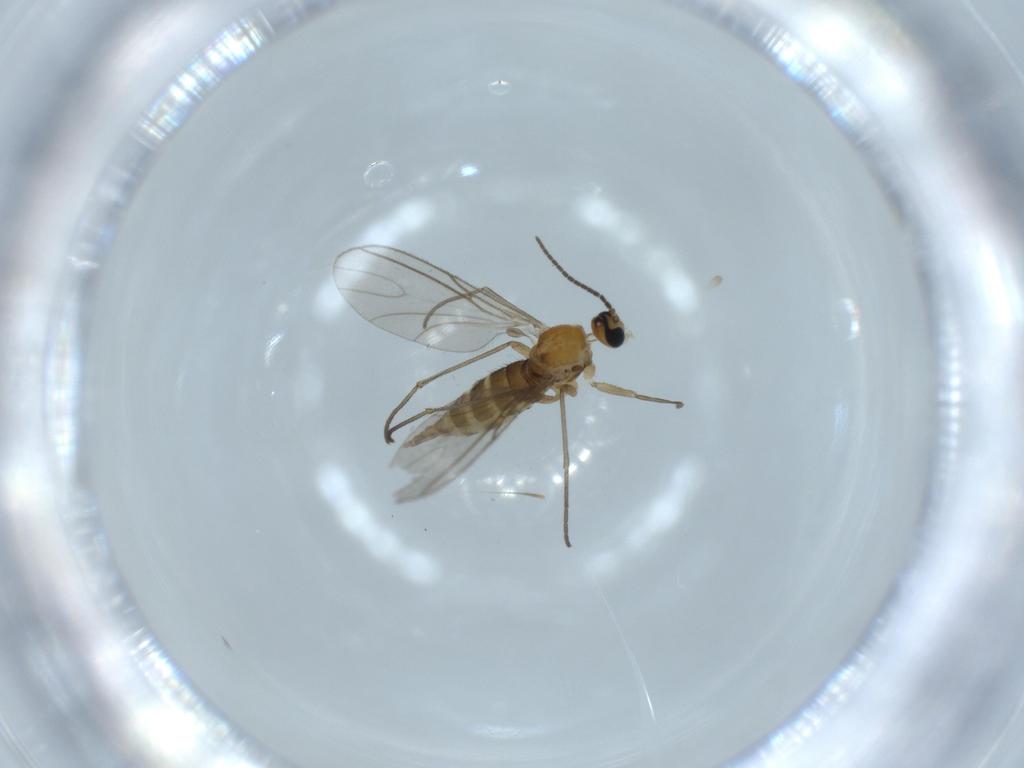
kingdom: Animalia
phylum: Arthropoda
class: Insecta
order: Diptera
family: Sciaridae
